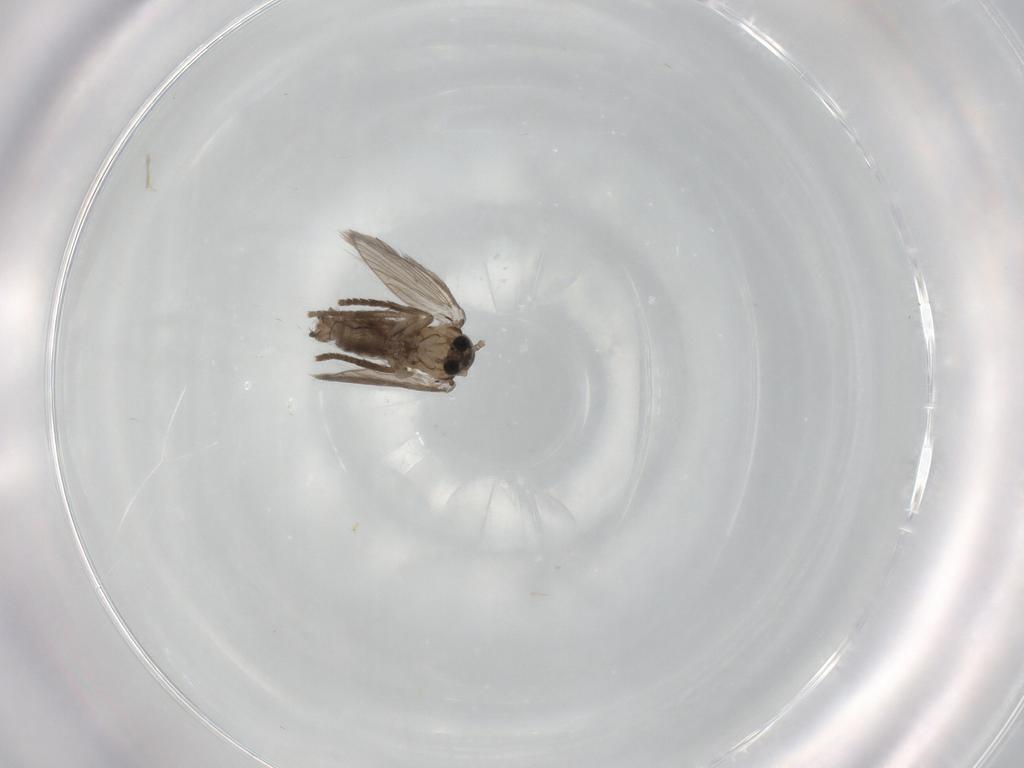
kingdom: Animalia
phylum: Arthropoda
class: Insecta
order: Diptera
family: Psychodidae
